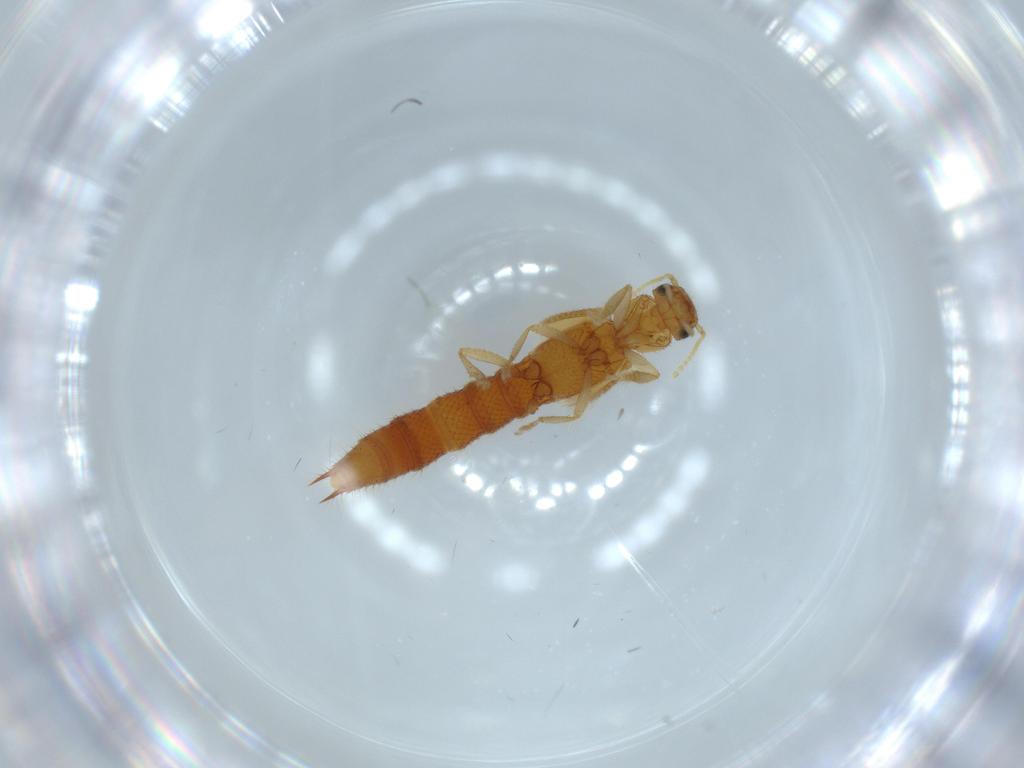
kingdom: Animalia
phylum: Arthropoda
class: Insecta
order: Coleoptera
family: Staphylinidae
